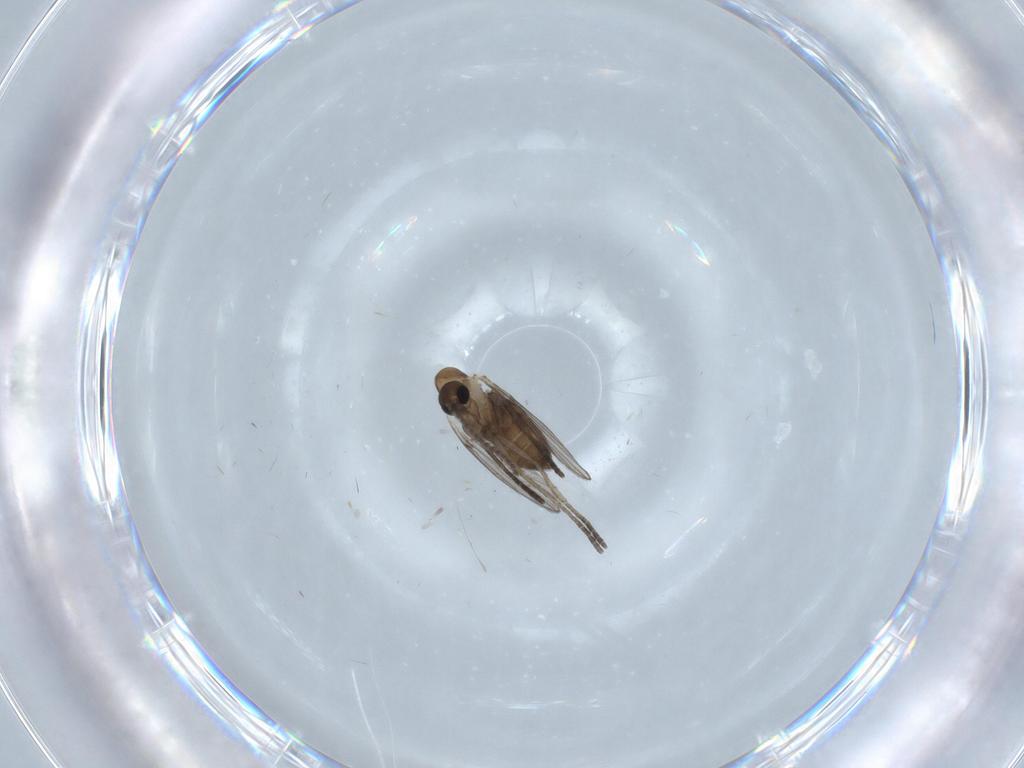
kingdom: Animalia
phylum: Arthropoda
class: Insecta
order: Diptera
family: Psychodidae
